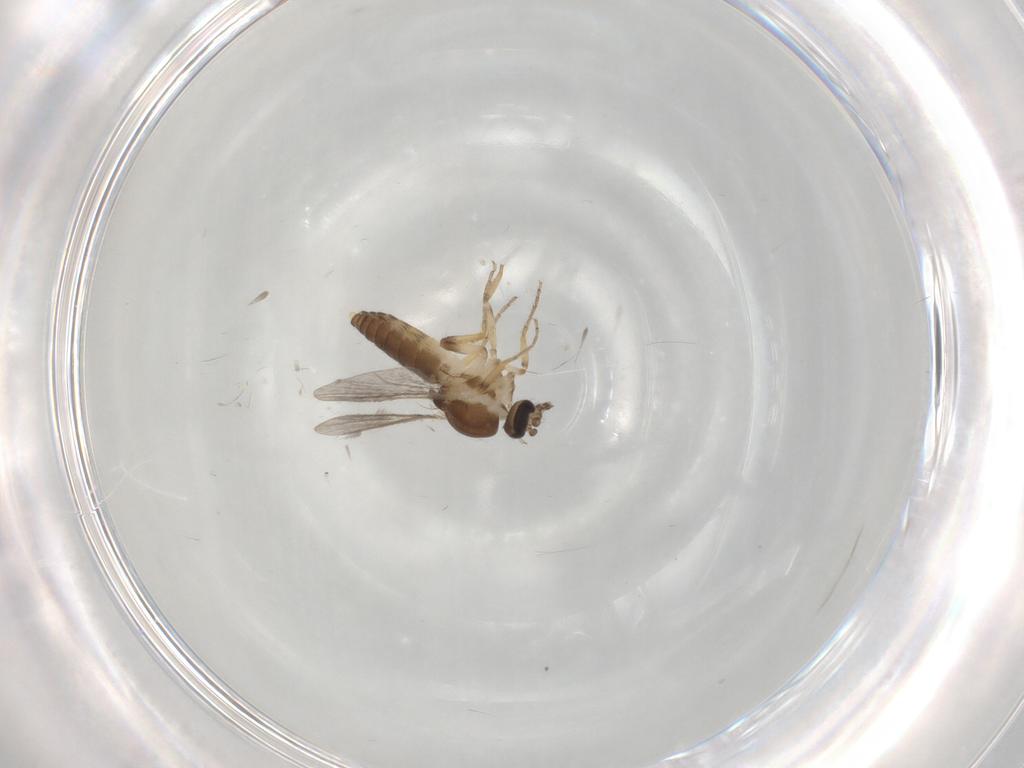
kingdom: Animalia
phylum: Arthropoda
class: Insecta
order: Diptera
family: Ceratopogonidae
